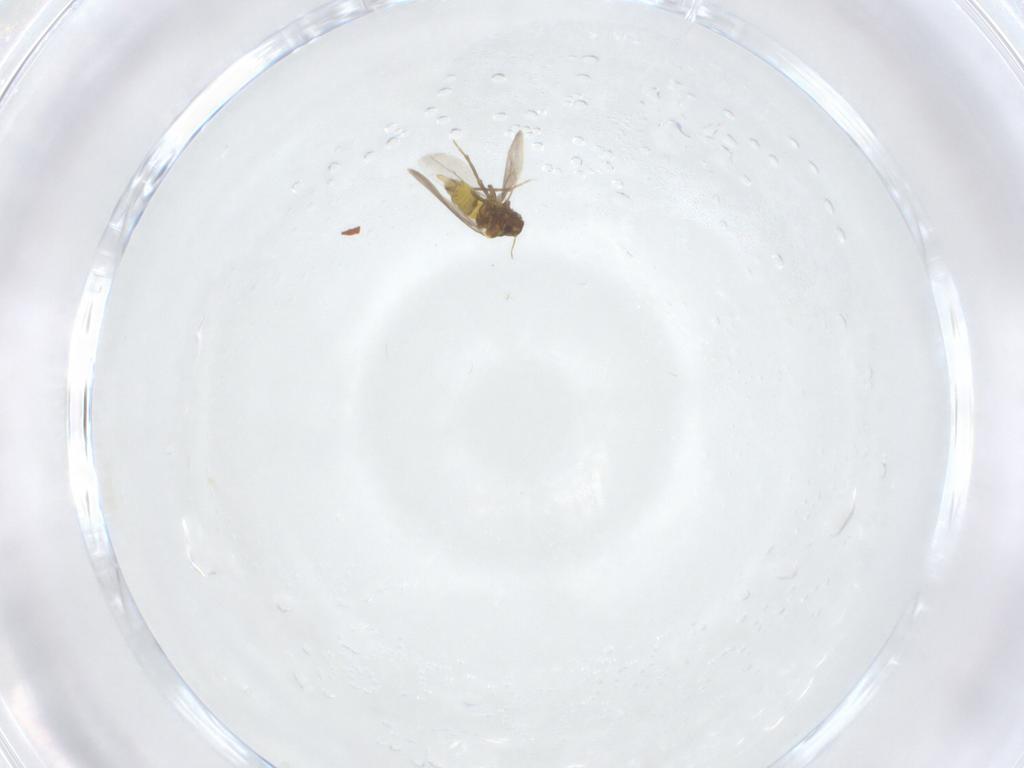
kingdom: Animalia
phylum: Arthropoda
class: Insecta
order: Hemiptera
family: Aleyrodidae
